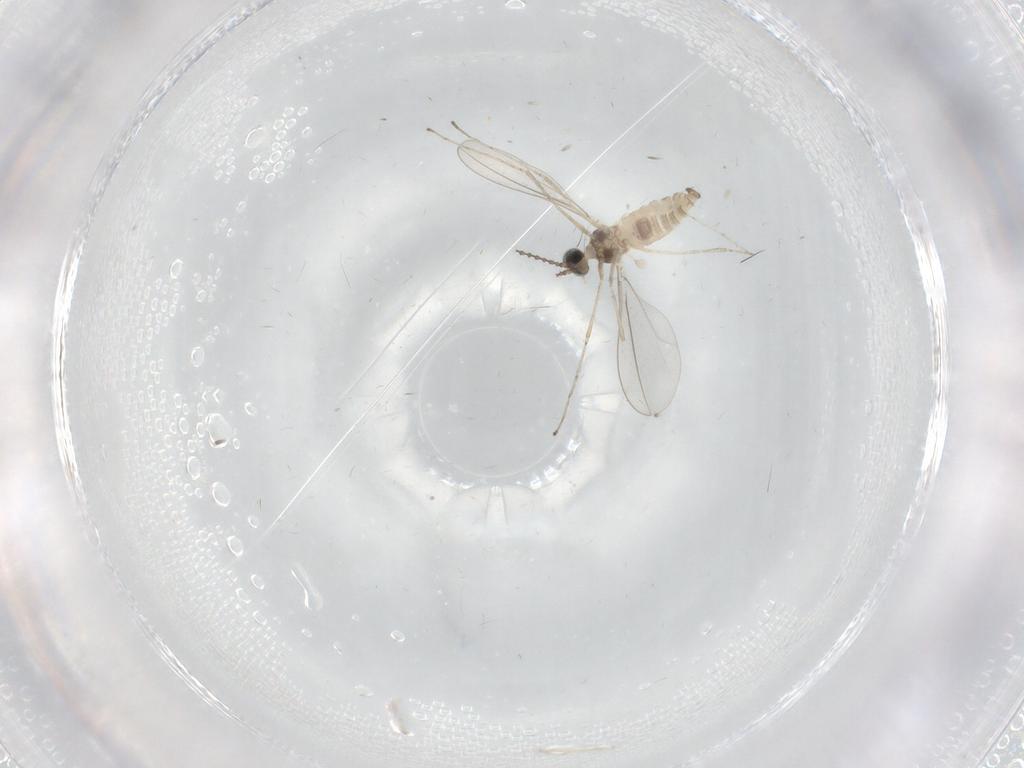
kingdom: Animalia
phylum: Arthropoda
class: Insecta
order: Diptera
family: Cecidomyiidae
